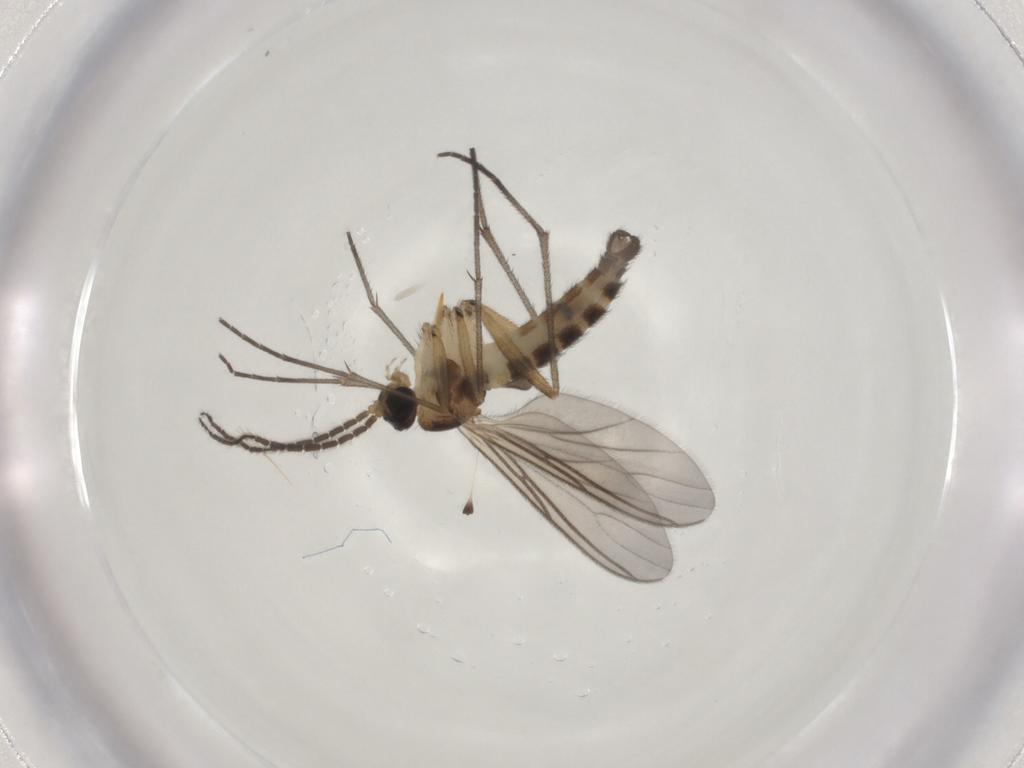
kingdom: Animalia
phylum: Arthropoda
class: Insecta
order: Diptera
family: Sciaridae
